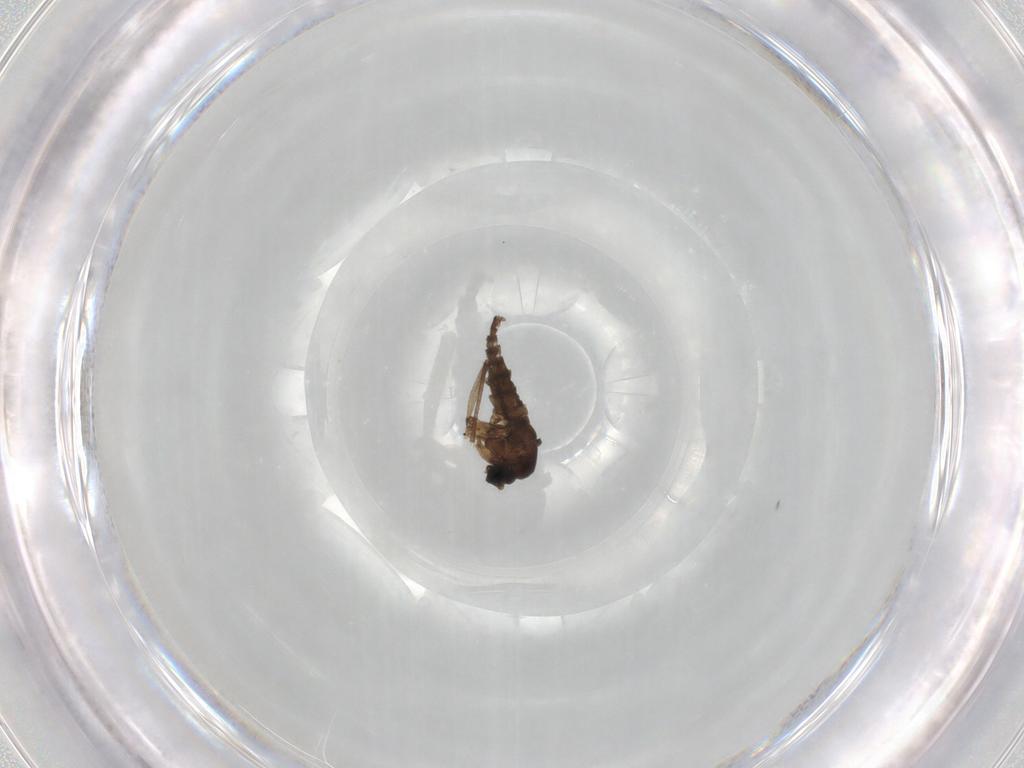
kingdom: Animalia
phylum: Arthropoda
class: Insecta
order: Diptera
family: Sciaridae
